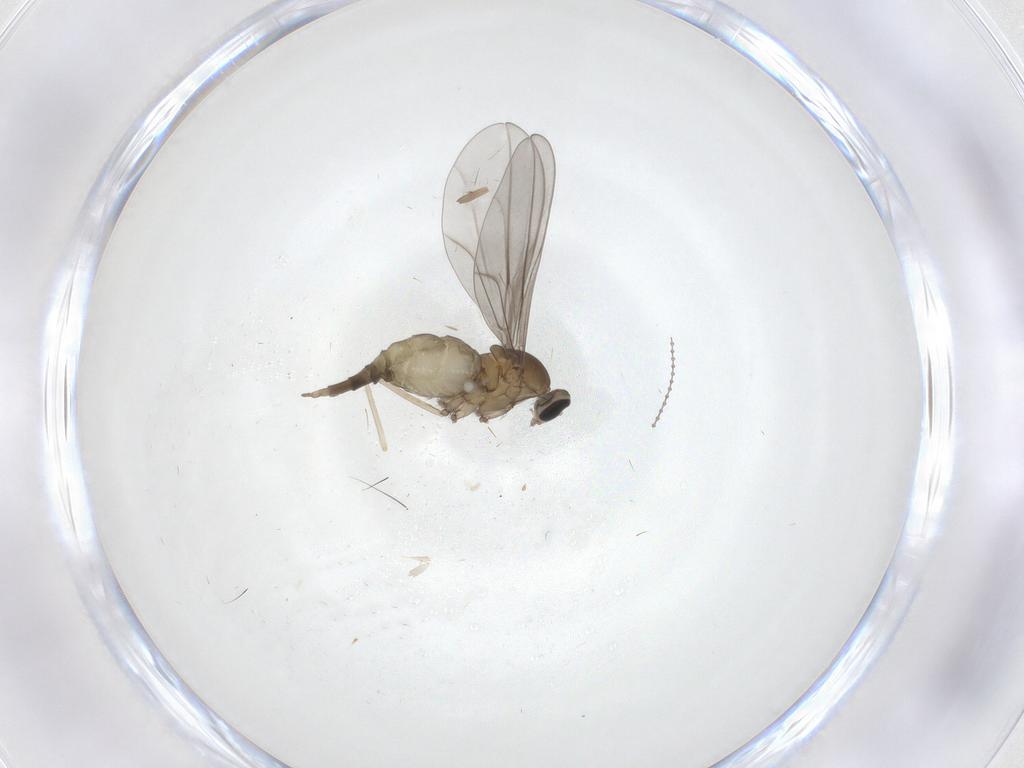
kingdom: Animalia
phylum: Arthropoda
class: Insecta
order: Diptera
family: Cecidomyiidae
